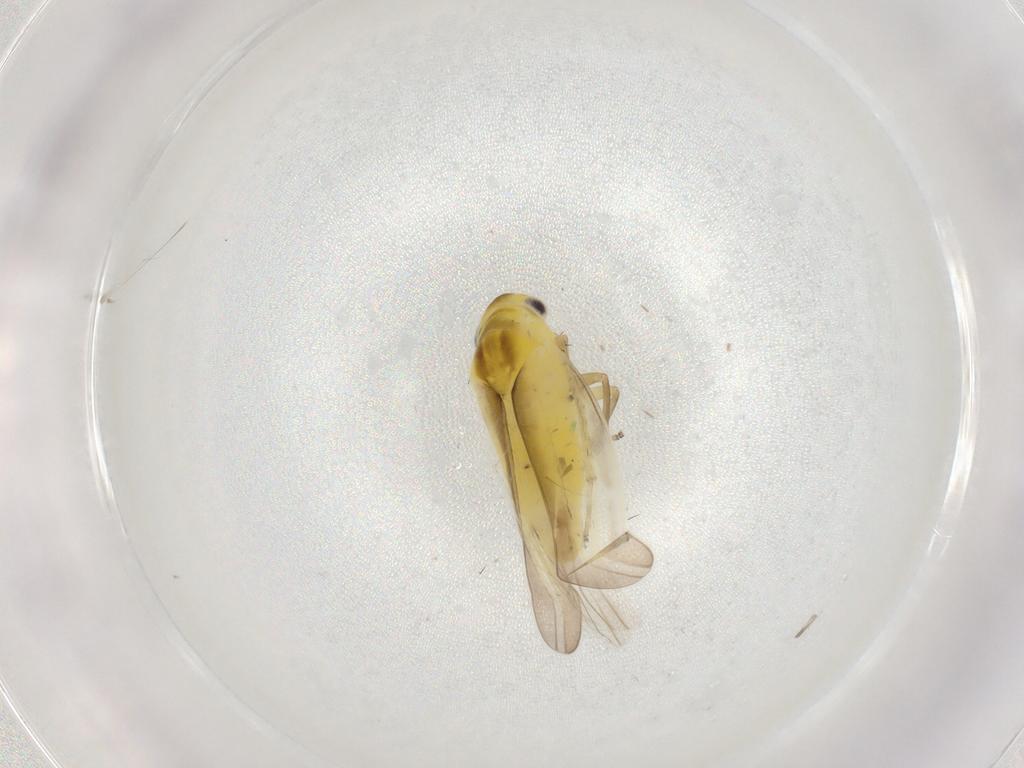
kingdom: Animalia
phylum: Arthropoda
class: Insecta
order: Hemiptera
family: Cicadellidae
